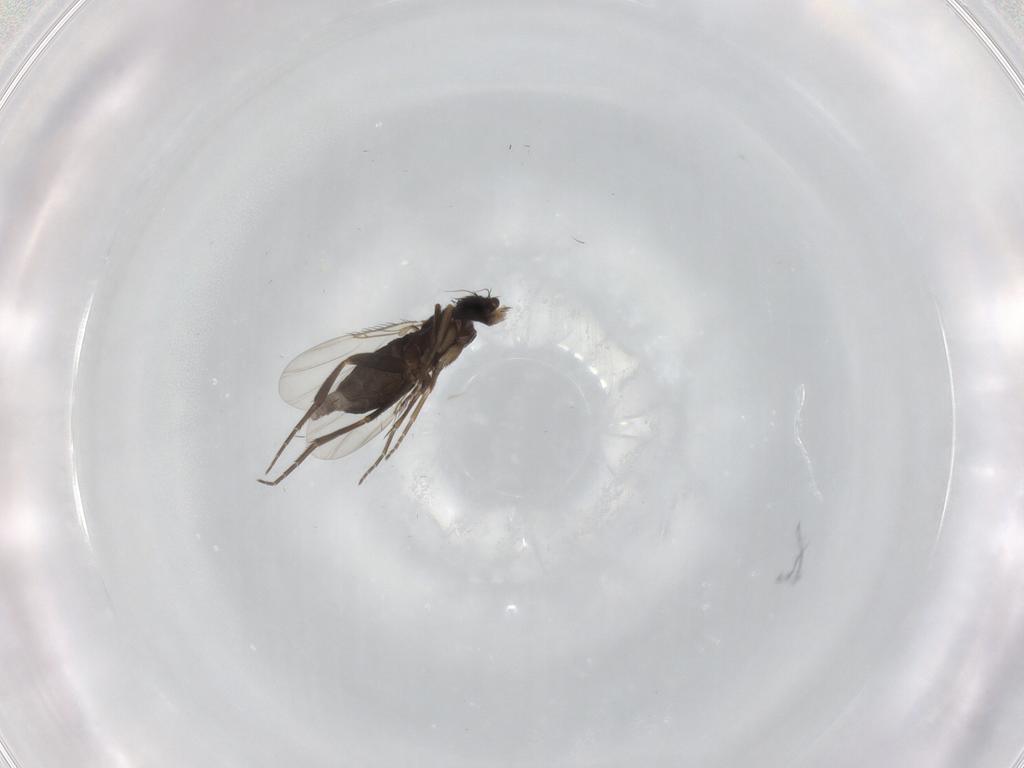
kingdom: Animalia
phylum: Arthropoda
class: Insecta
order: Diptera
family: Phoridae
